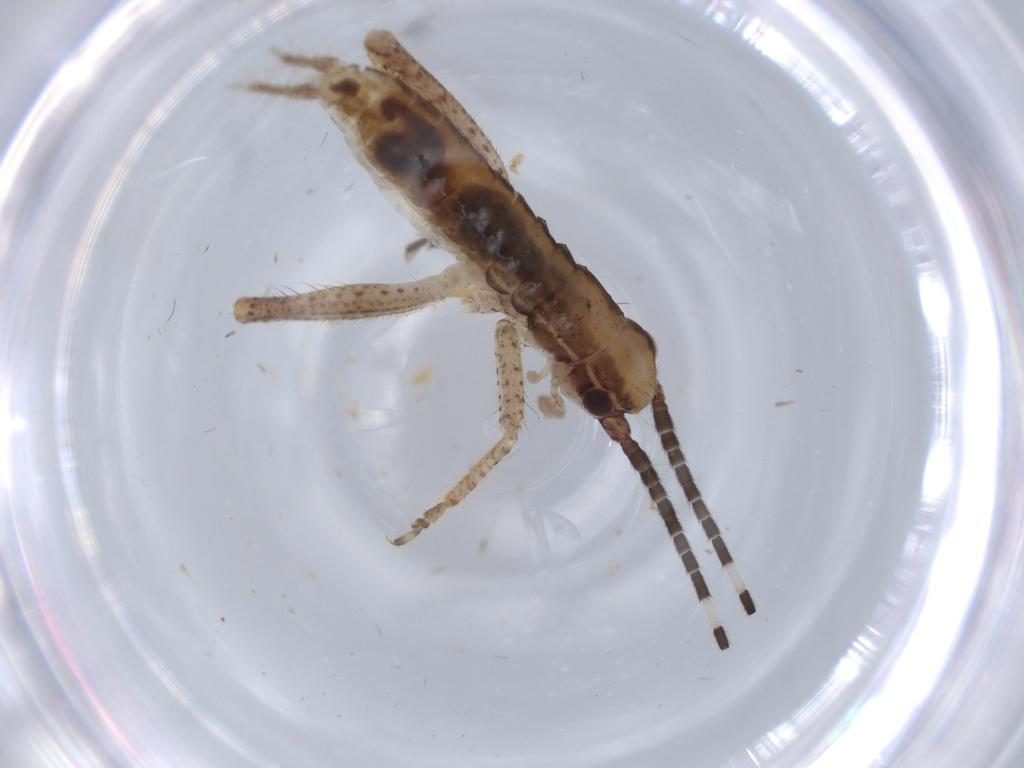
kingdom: Animalia
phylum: Arthropoda
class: Insecta
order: Orthoptera
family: Gryllidae
